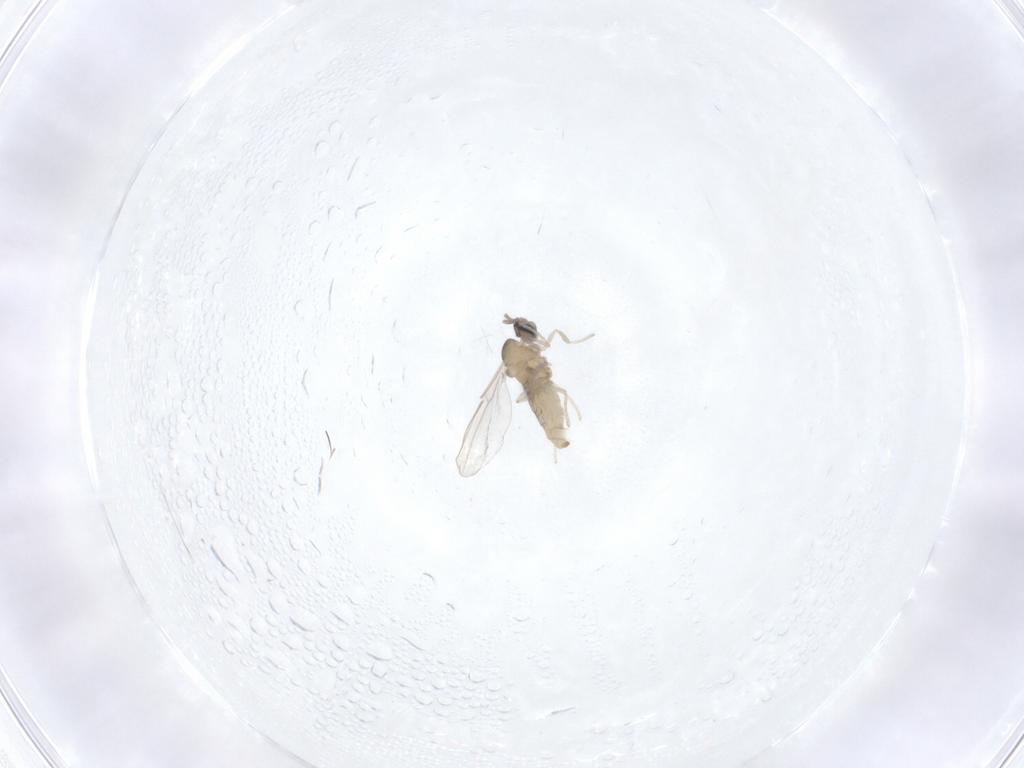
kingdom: Animalia
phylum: Arthropoda
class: Insecta
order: Diptera
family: Cecidomyiidae
